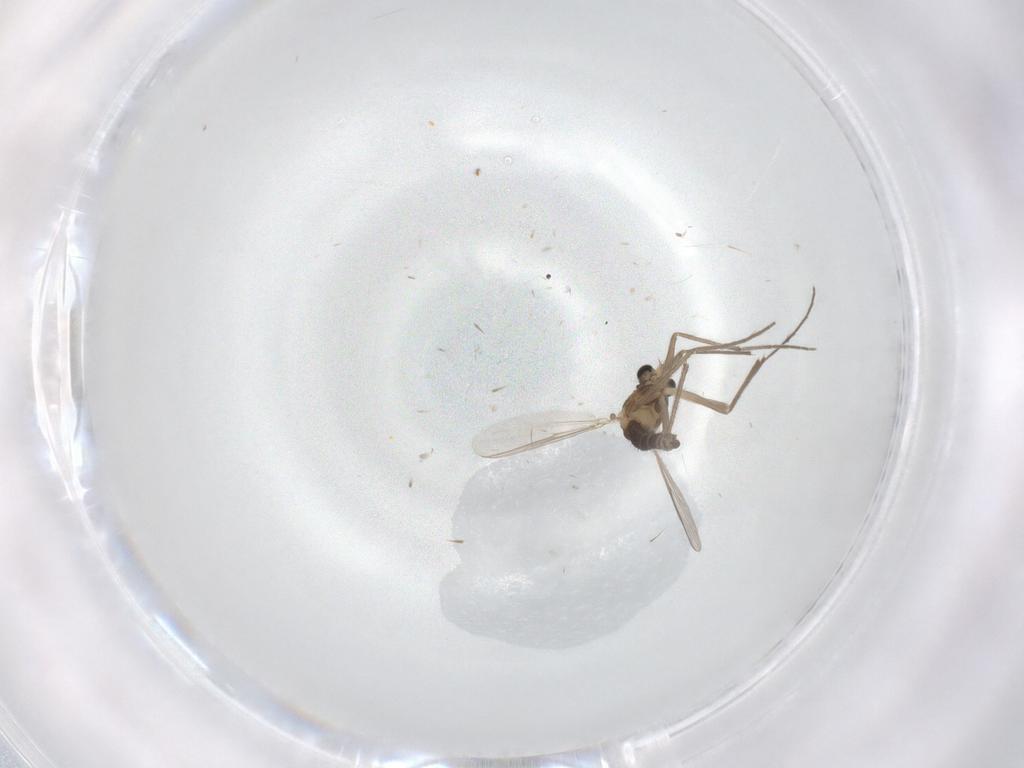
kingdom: Animalia
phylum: Arthropoda
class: Insecta
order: Diptera
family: Chironomidae
